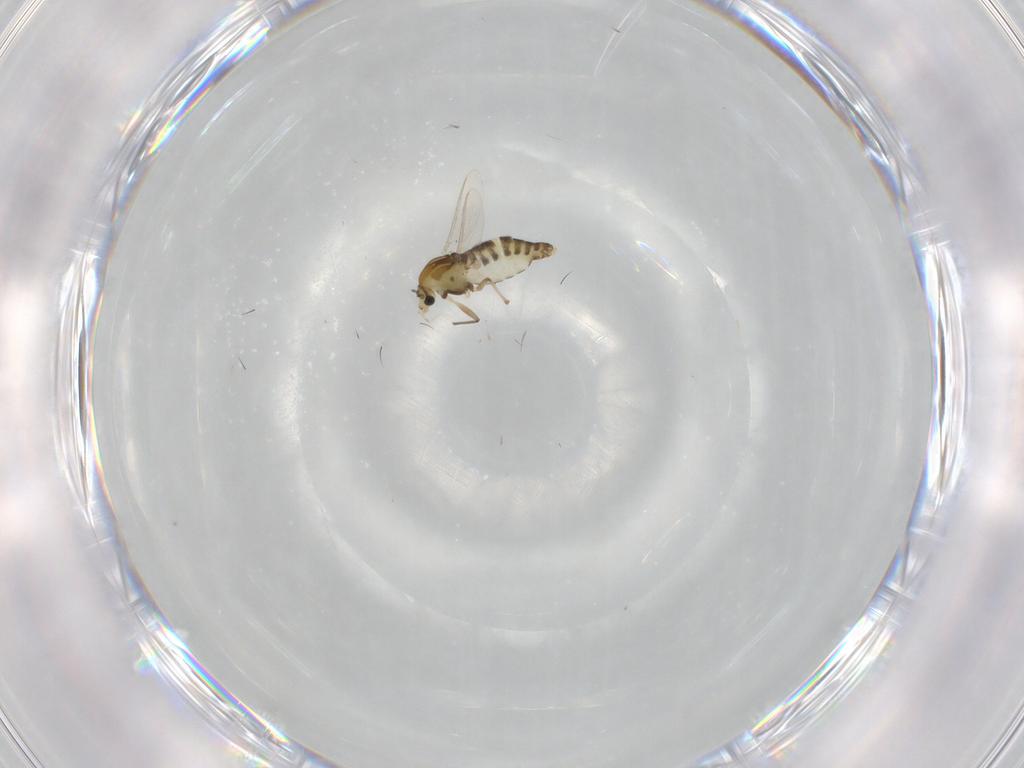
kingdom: Animalia
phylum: Arthropoda
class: Insecta
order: Diptera
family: Chironomidae
